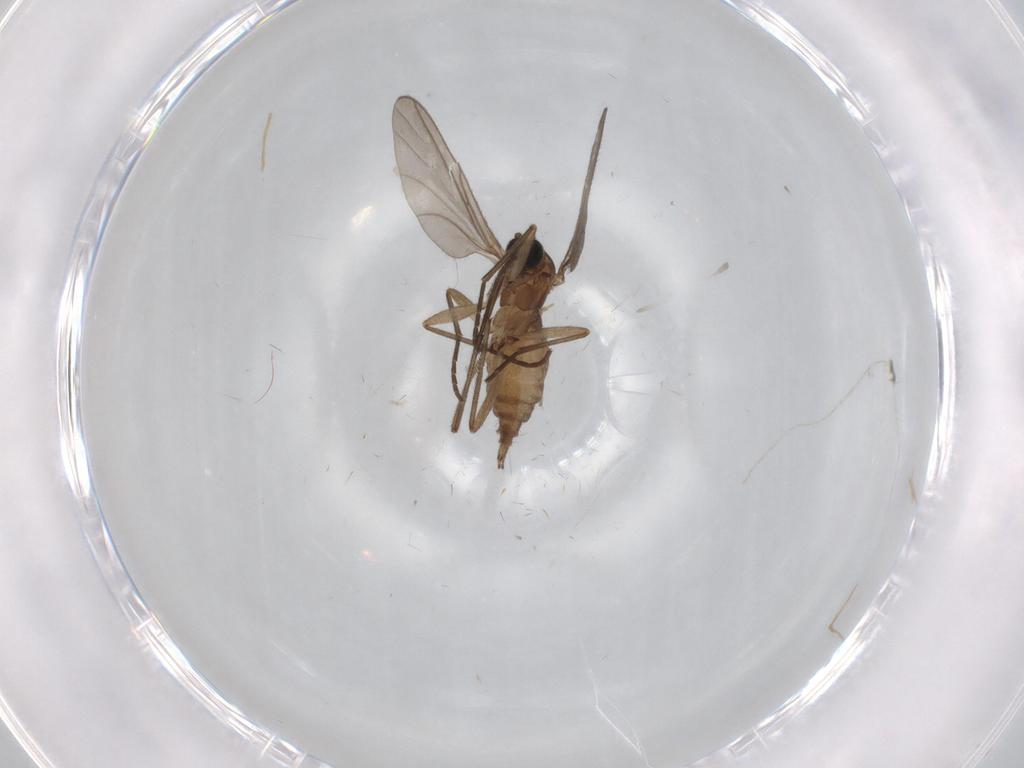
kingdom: Animalia
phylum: Arthropoda
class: Insecta
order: Diptera
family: Sciaridae
